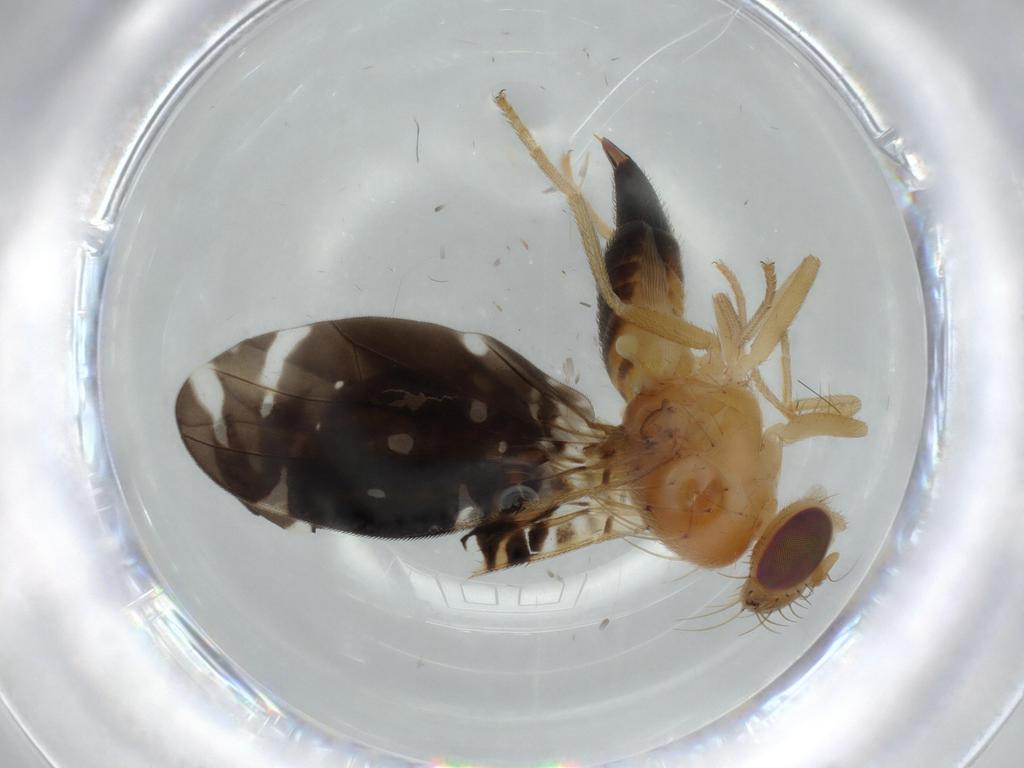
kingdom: Animalia
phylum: Arthropoda
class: Insecta
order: Diptera
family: Tephritidae
